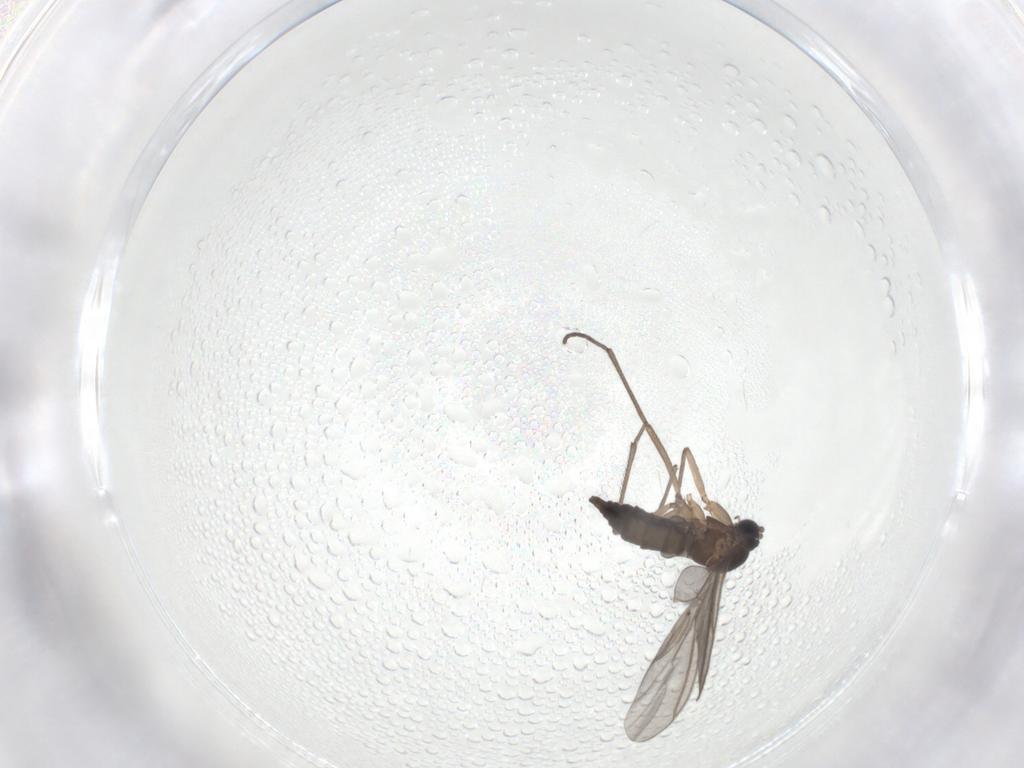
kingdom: Animalia
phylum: Arthropoda
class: Insecta
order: Diptera
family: Sciaridae
